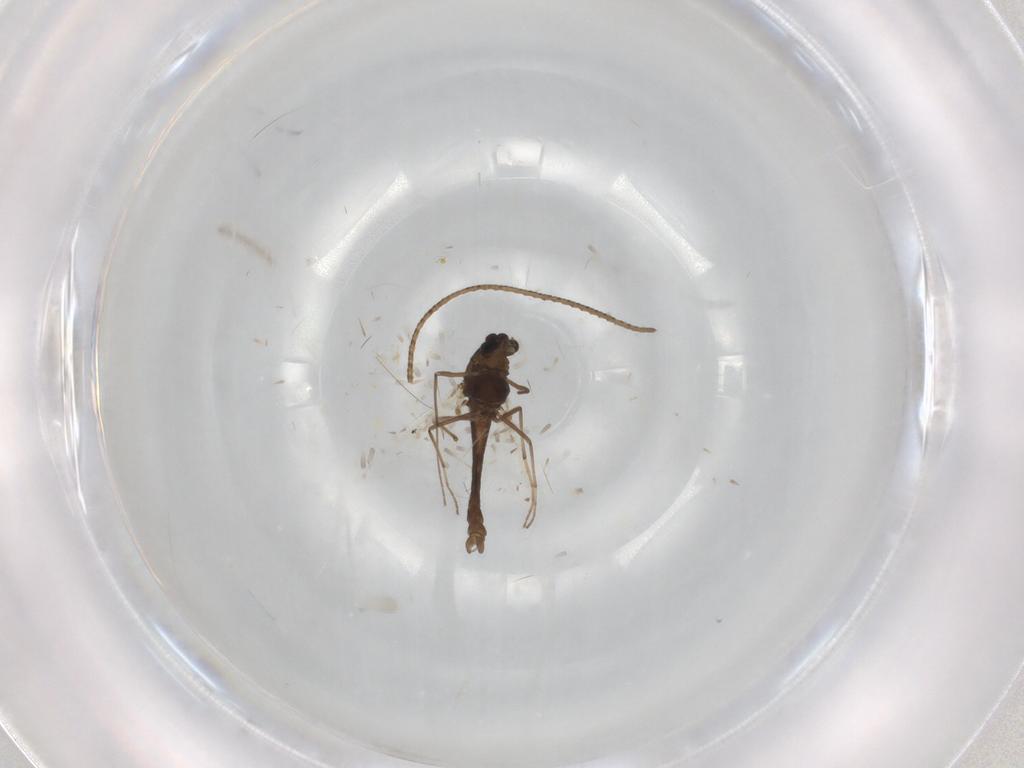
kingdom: Animalia
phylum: Arthropoda
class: Insecta
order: Diptera
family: Chironomidae
